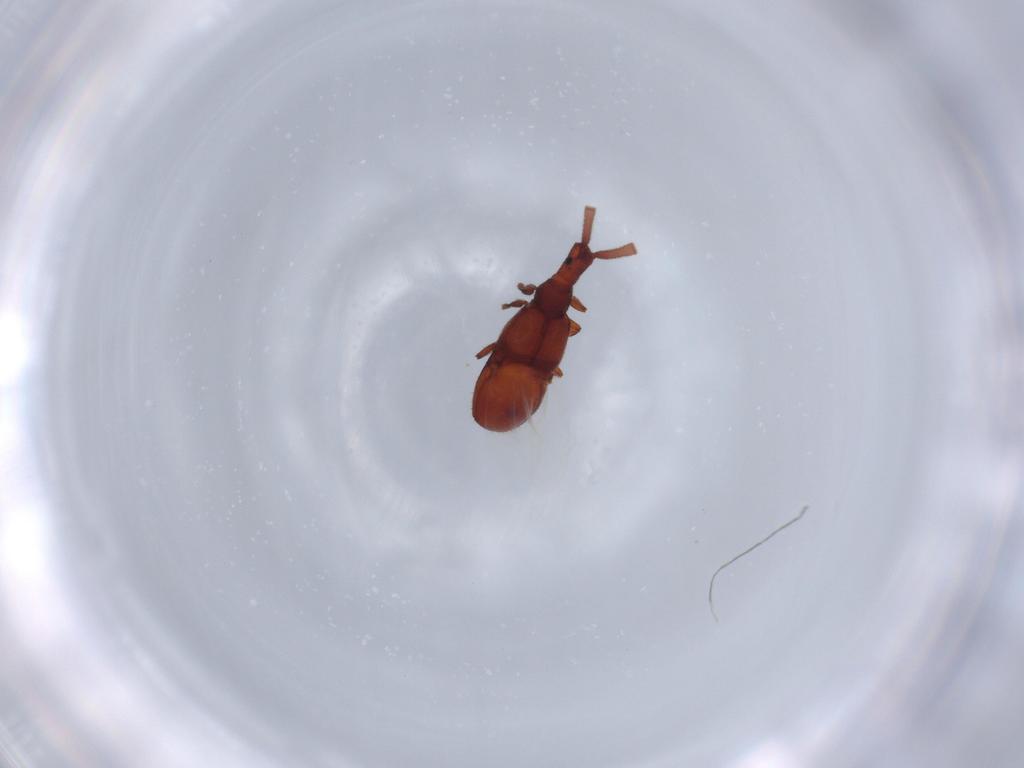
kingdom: Animalia
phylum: Arthropoda
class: Insecta
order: Coleoptera
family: Staphylinidae
